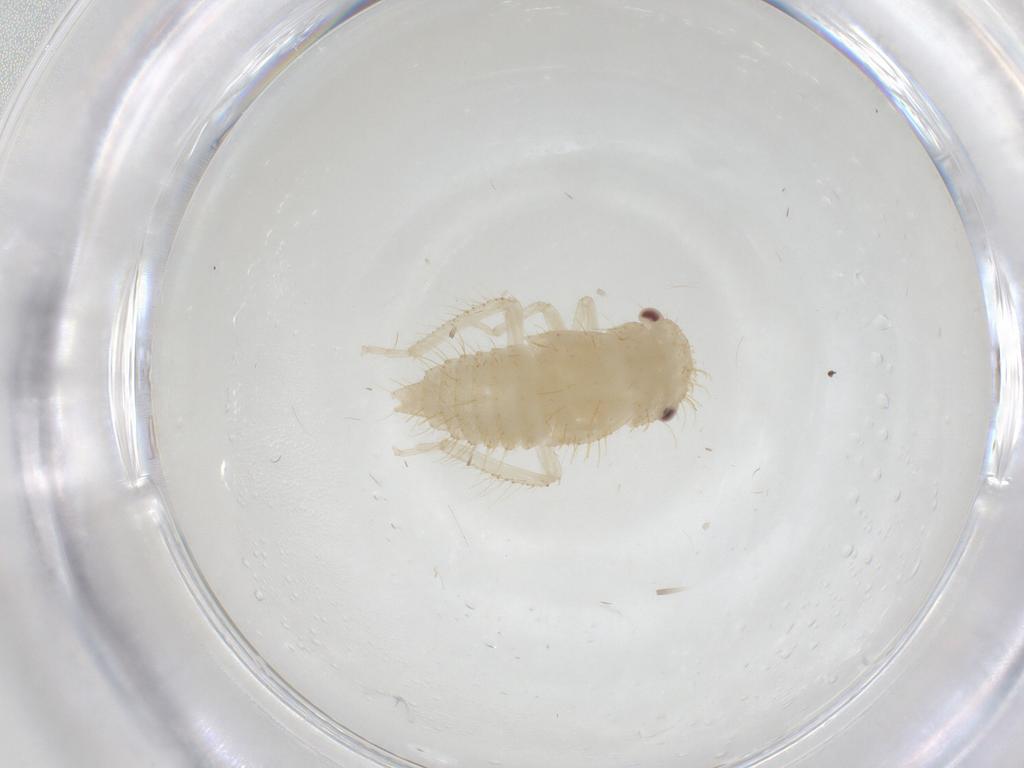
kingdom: Animalia
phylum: Arthropoda
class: Insecta
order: Hemiptera
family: Cicadellidae
